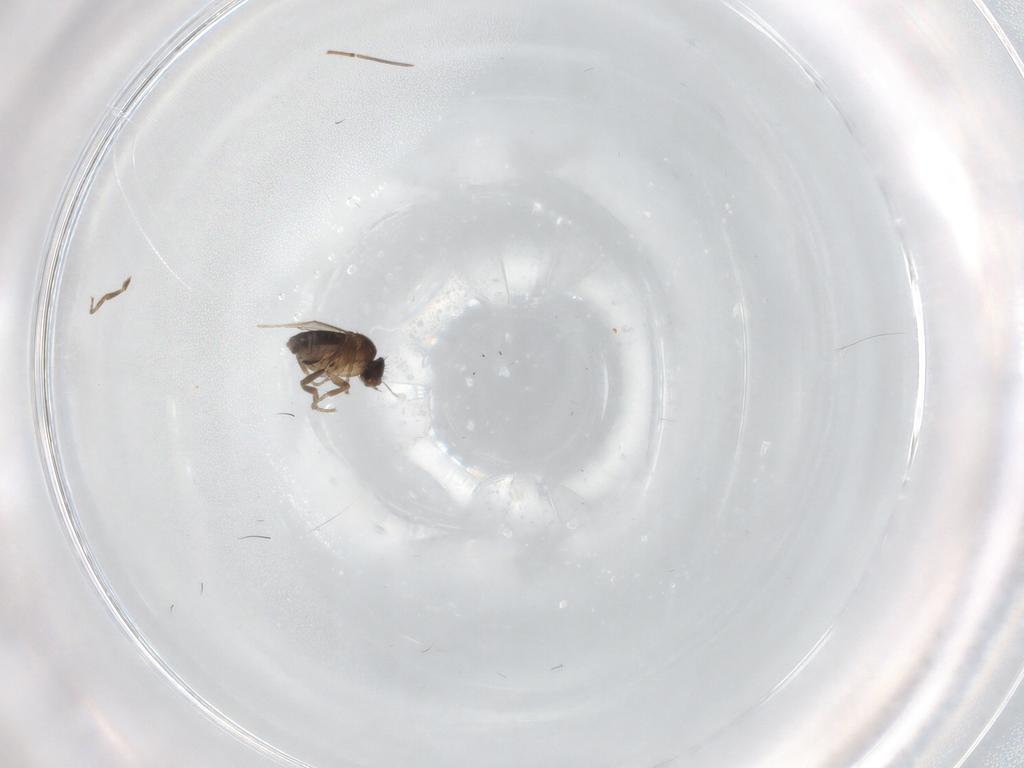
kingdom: Animalia
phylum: Arthropoda
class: Insecta
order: Diptera
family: Phoridae
